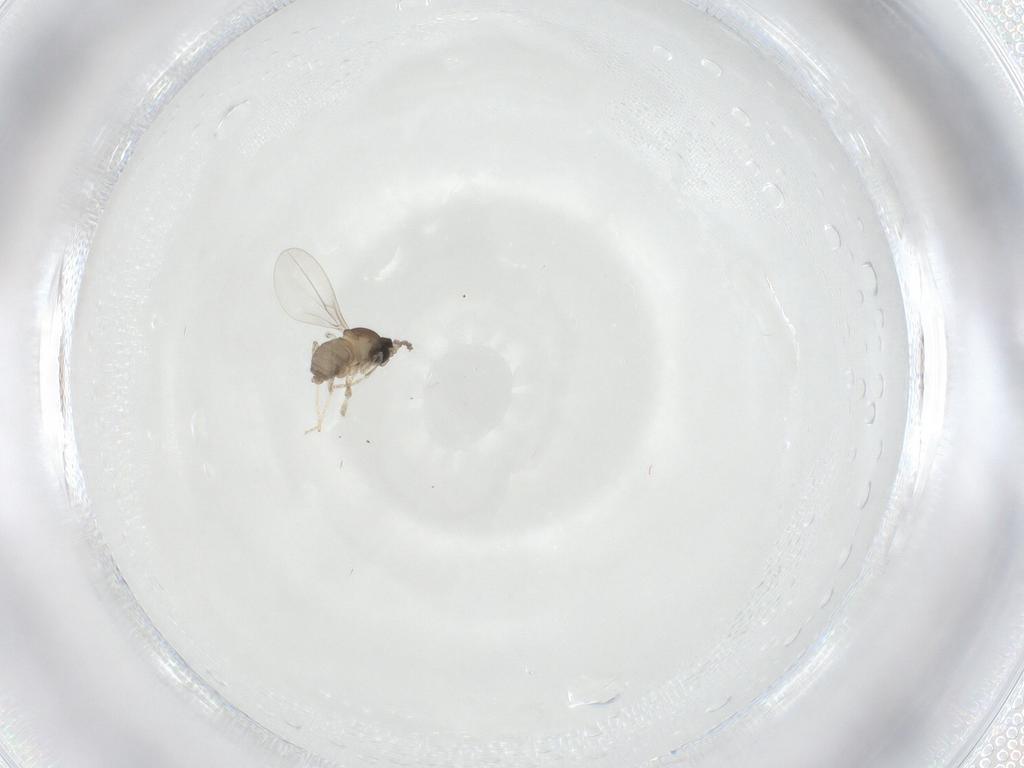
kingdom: Animalia
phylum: Arthropoda
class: Insecta
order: Diptera
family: Cecidomyiidae
